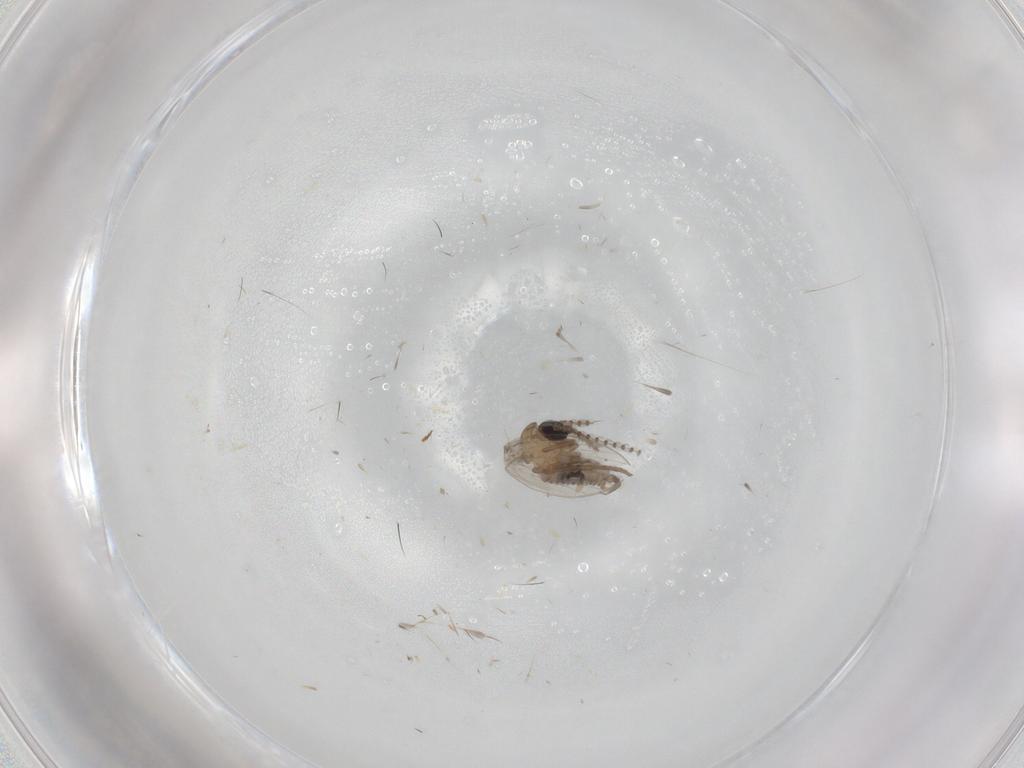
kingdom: Animalia
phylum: Arthropoda
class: Insecta
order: Diptera
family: Psychodidae
